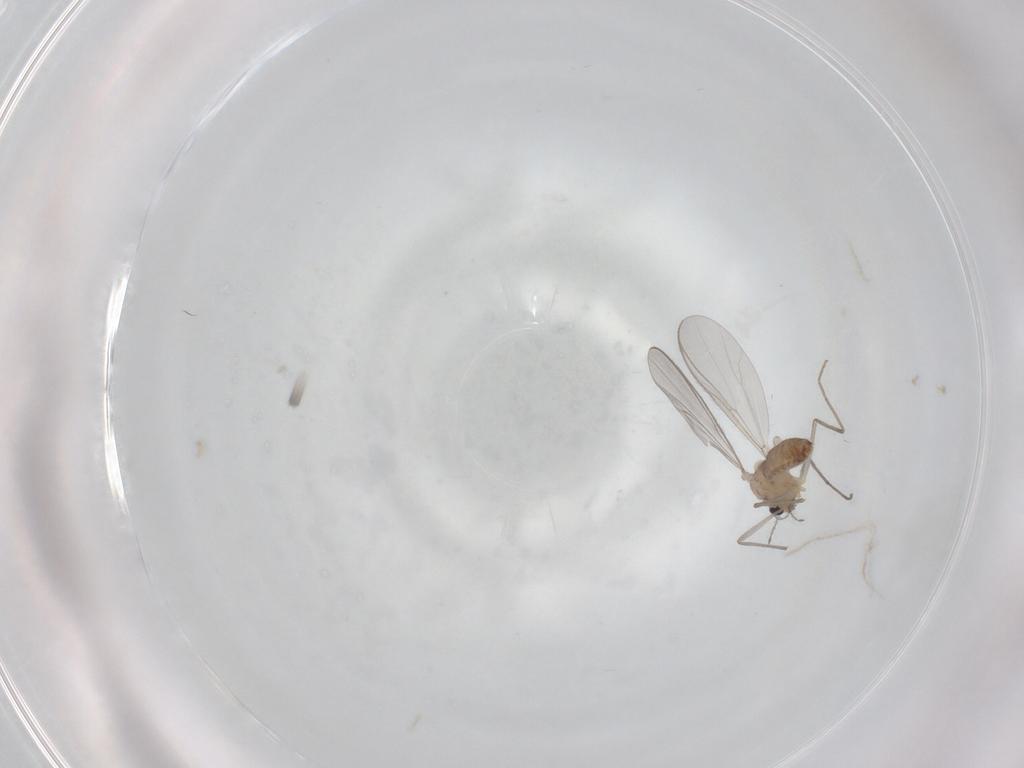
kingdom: Animalia
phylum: Arthropoda
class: Insecta
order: Diptera
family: Chironomidae
